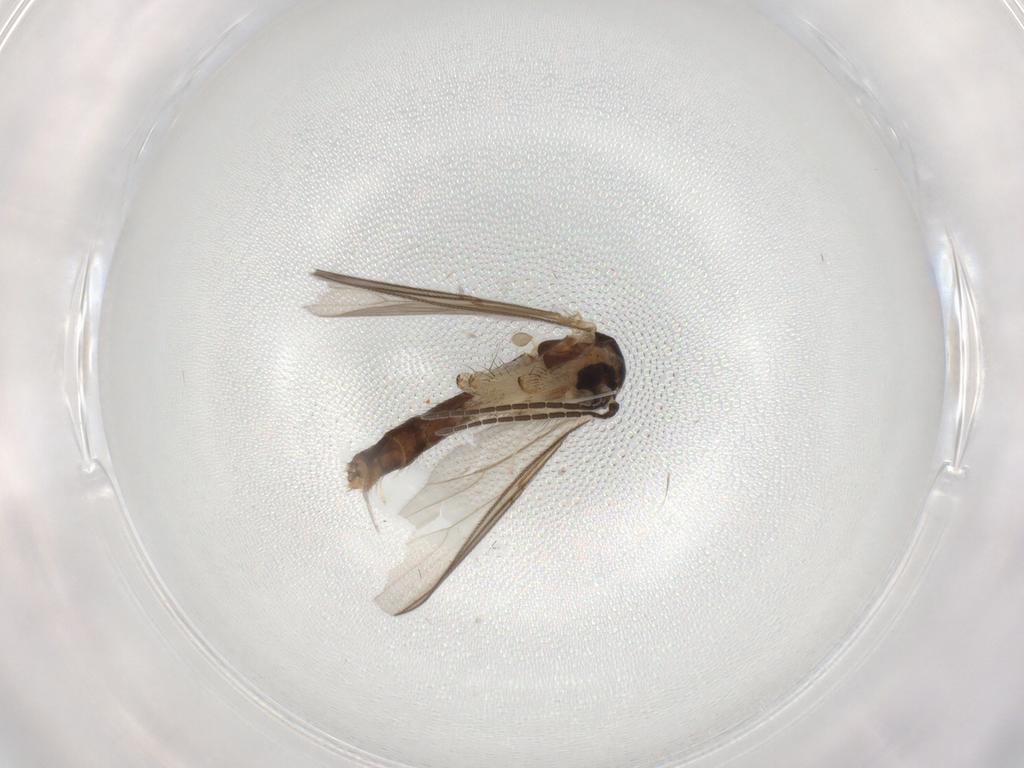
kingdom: Animalia
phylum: Arthropoda
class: Insecta
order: Diptera
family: Mycetophilidae
